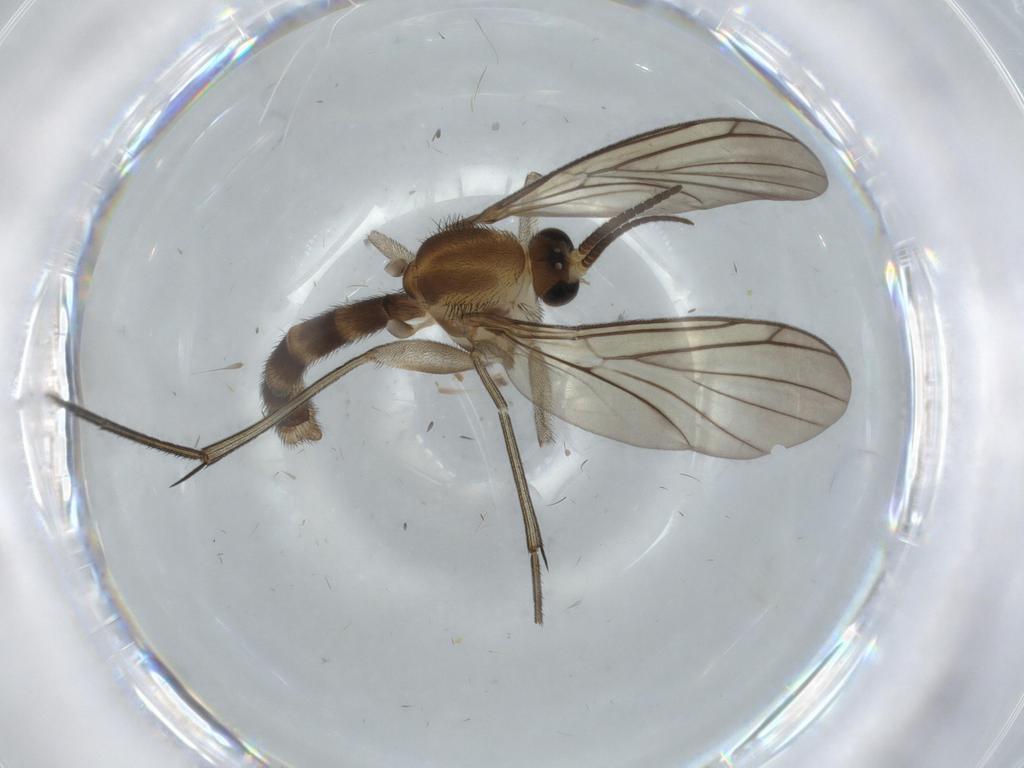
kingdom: Animalia
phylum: Arthropoda
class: Insecta
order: Diptera
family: Cecidomyiidae
